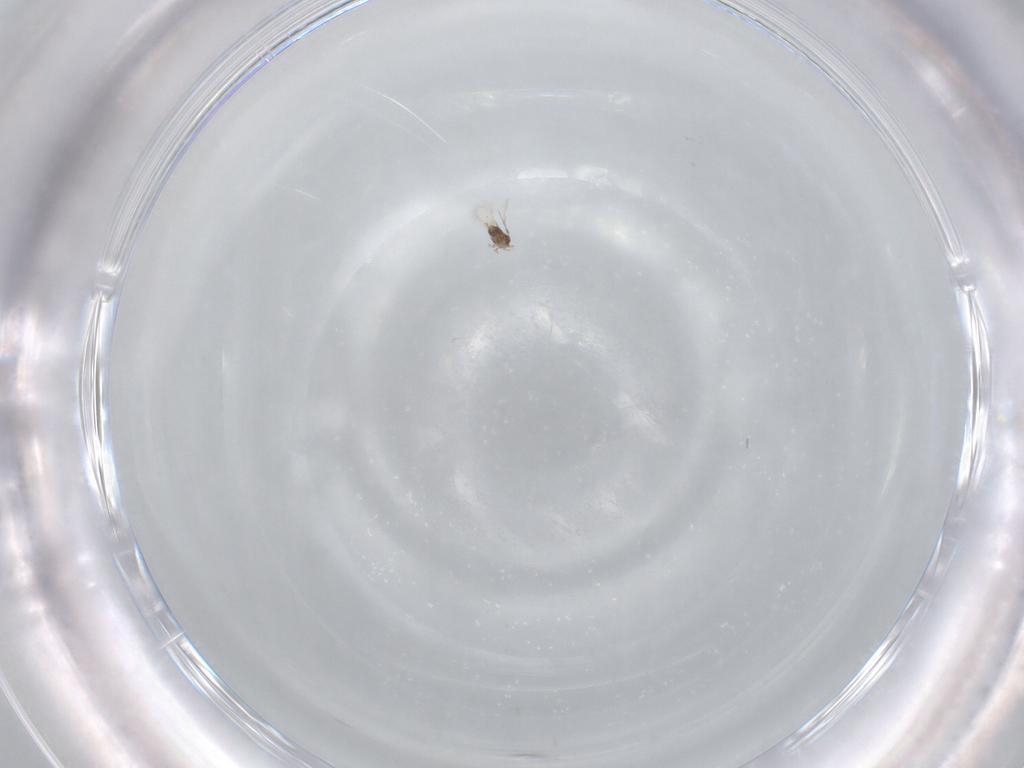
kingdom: Animalia
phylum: Arthropoda
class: Insecta
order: Hymenoptera
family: Aphelinidae
